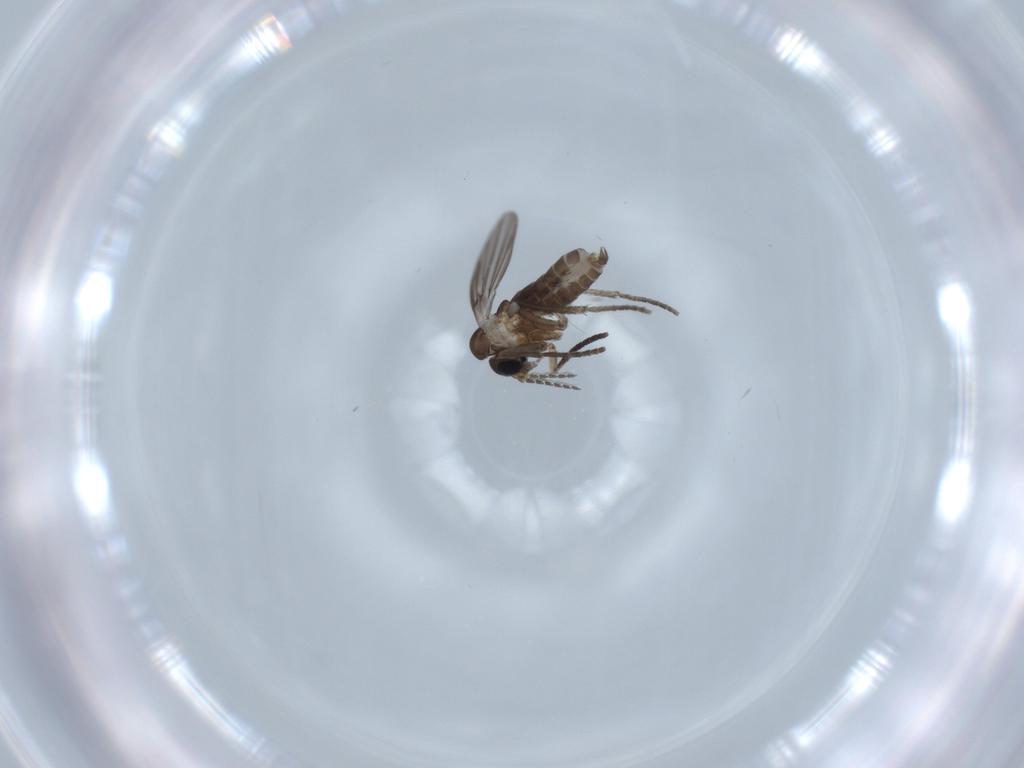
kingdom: Animalia
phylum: Arthropoda
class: Insecta
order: Diptera
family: Psychodidae
